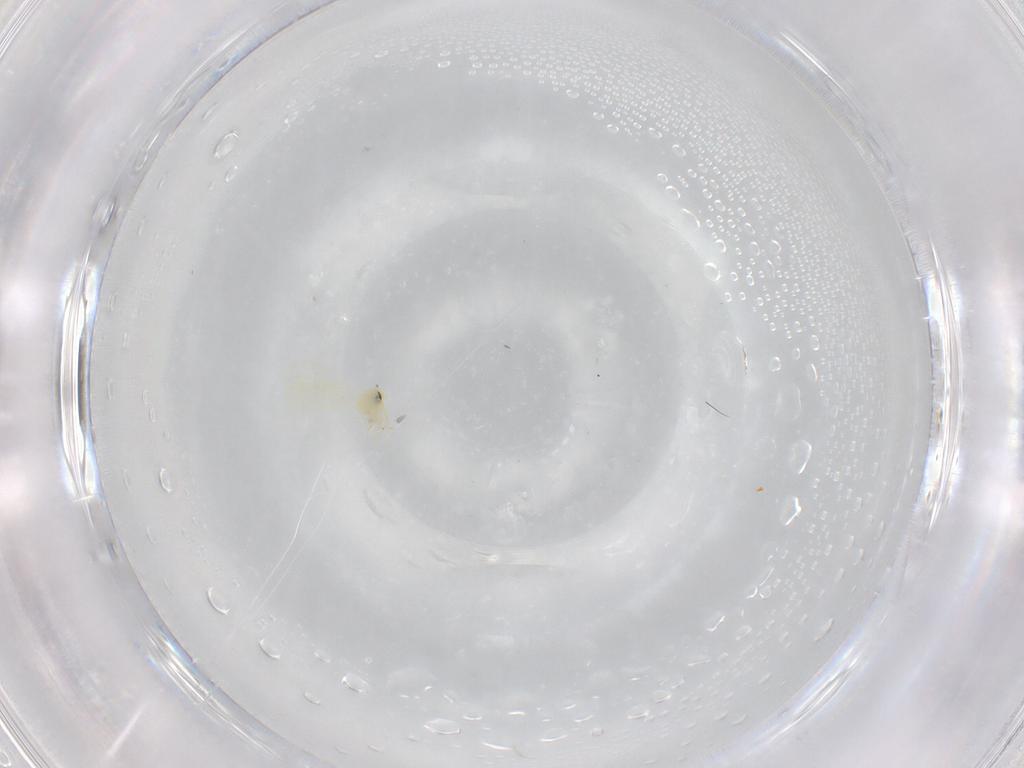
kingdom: Animalia
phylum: Arthropoda
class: Insecta
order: Hemiptera
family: Aleyrodidae
